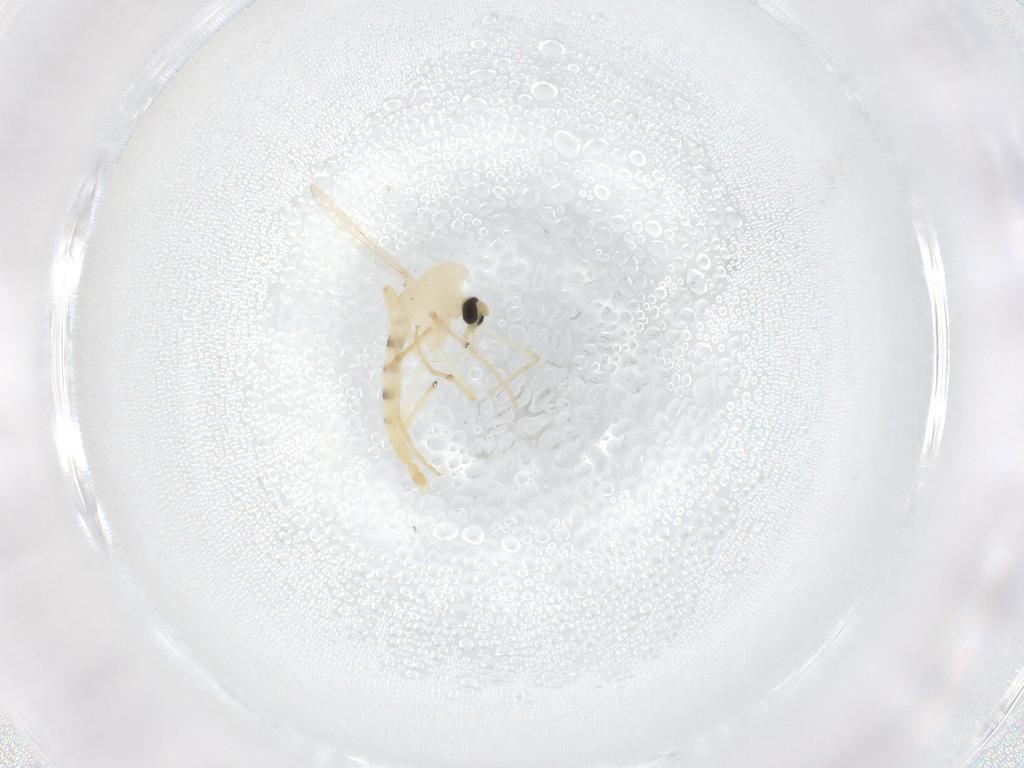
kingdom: Animalia
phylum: Arthropoda
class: Insecta
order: Diptera
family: Chironomidae
